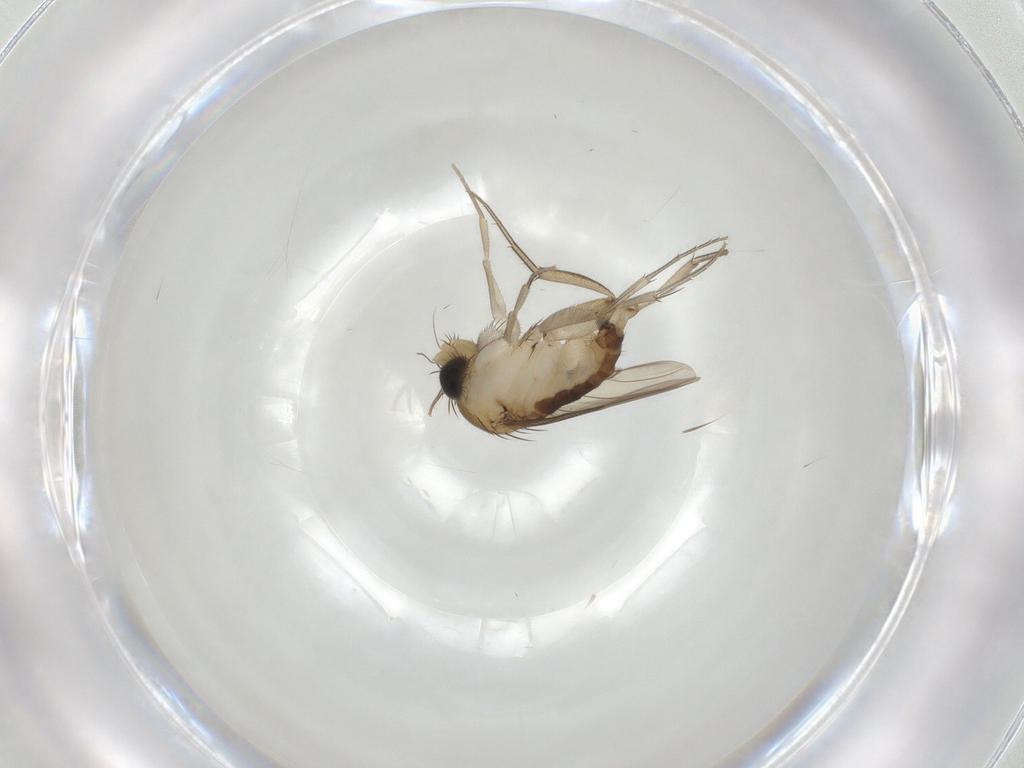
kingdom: Animalia
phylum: Arthropoda
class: Insecta
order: Diptera
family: Phoridae
